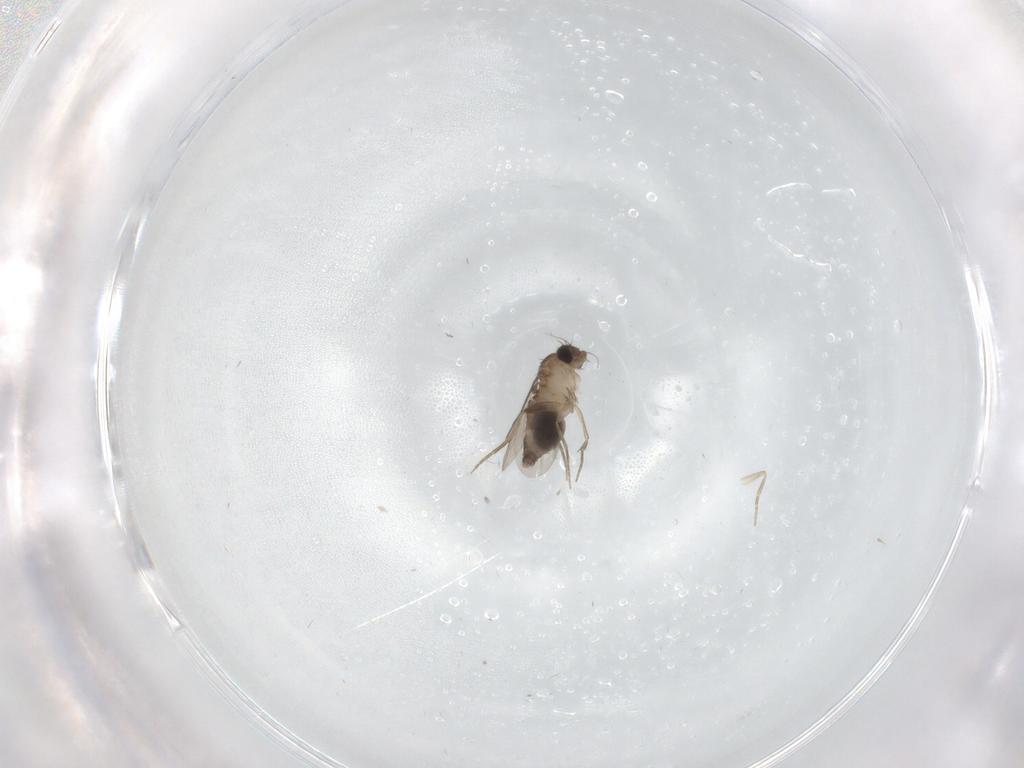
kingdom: Animalia
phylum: Arthropoda
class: Insecta
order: Diptera
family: Phoridae
